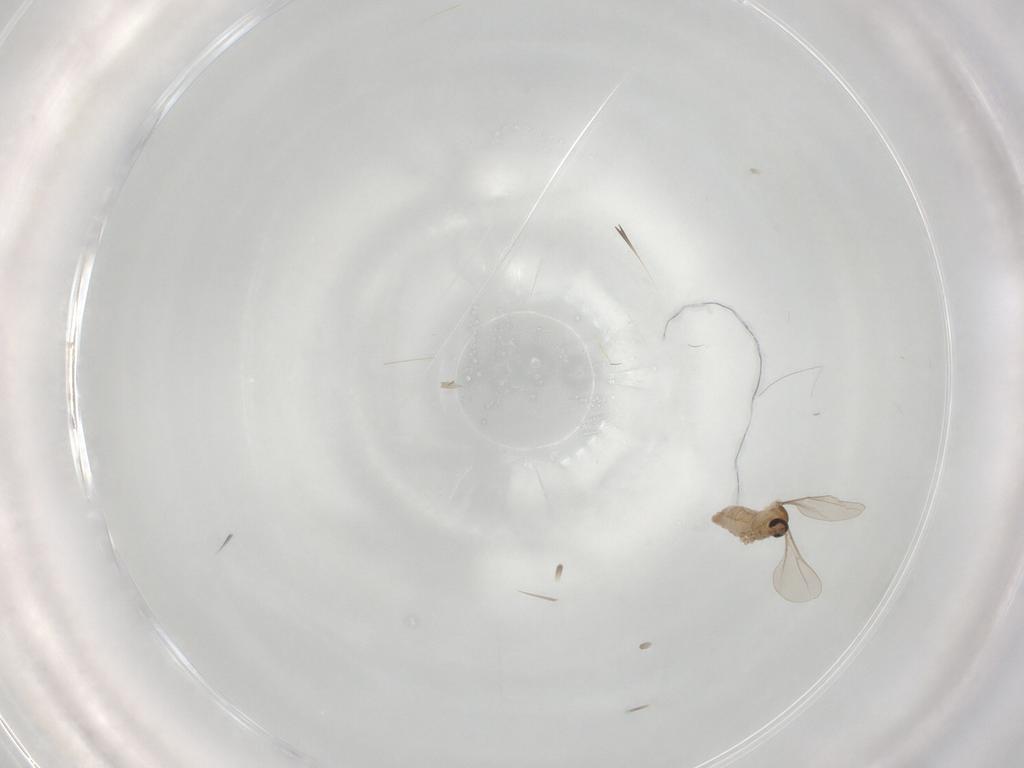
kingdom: Animalia
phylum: Arthropoda
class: Insecta
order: Diptera
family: Cecidomyiidae
